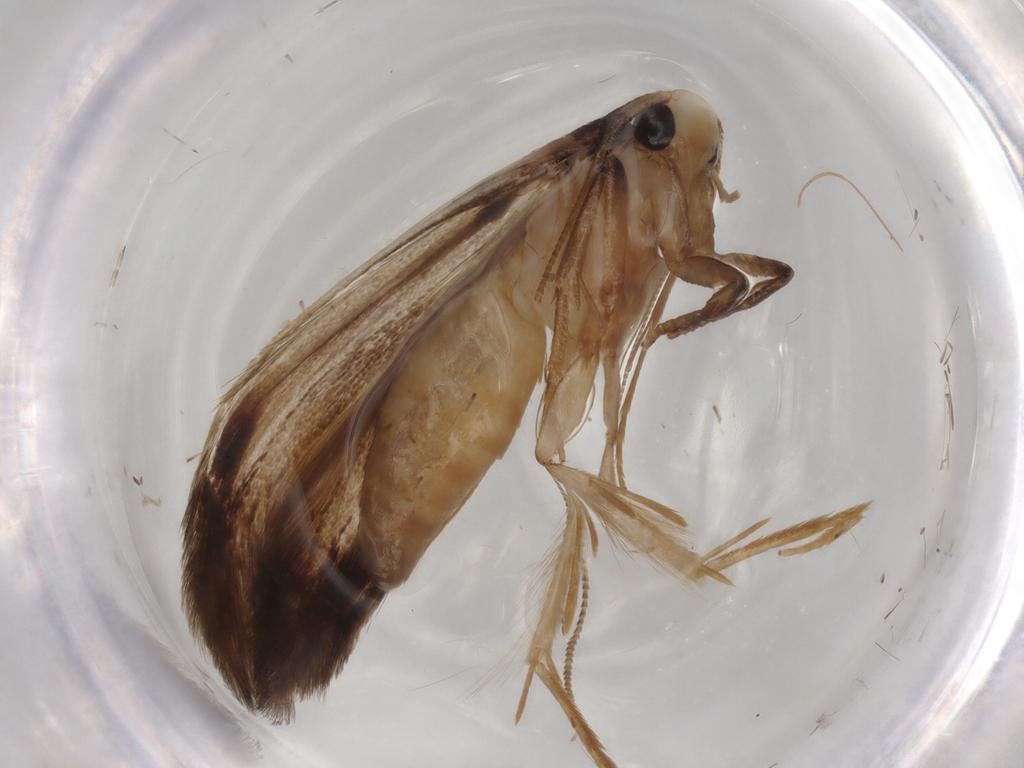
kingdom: Animalia
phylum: Arthropoda
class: Insecta
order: Lepidoptera
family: Tineidae
